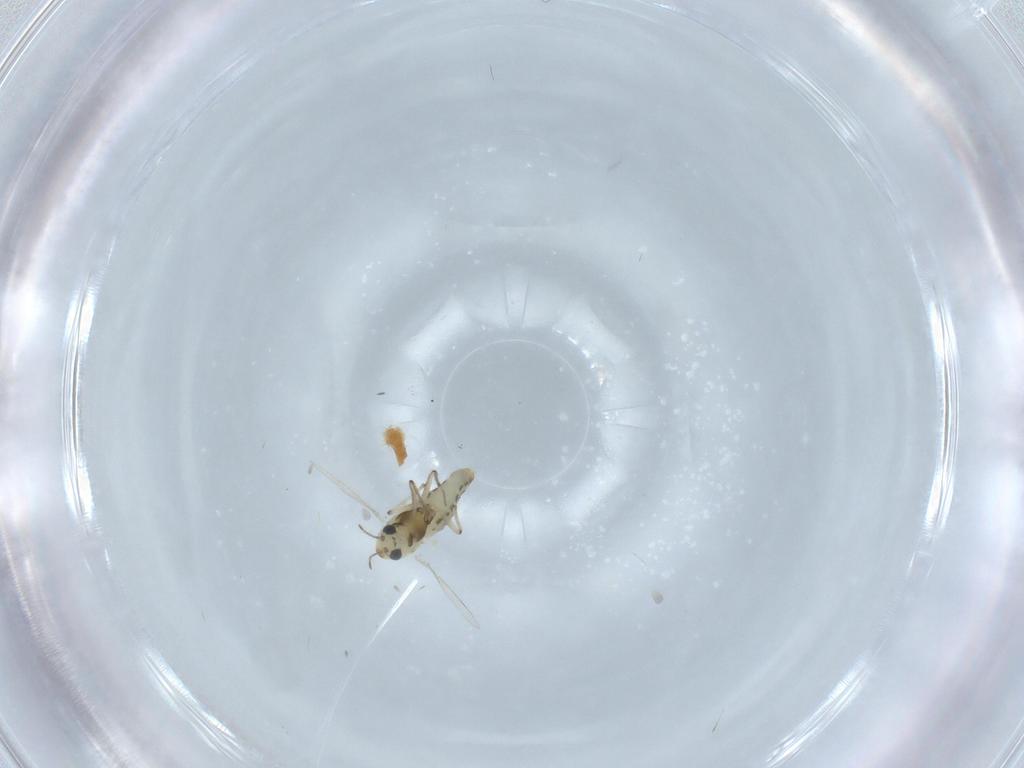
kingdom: Animalia
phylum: Arthropoda
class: Insecta
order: Diptera
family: Chironomidae
